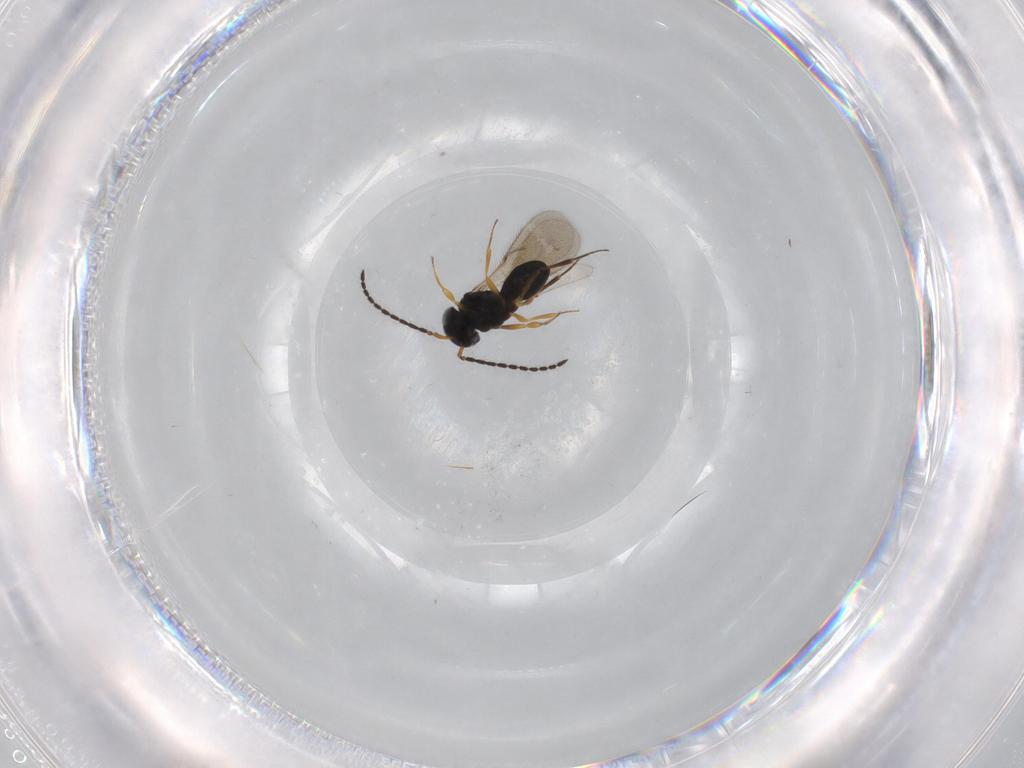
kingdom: Animalia
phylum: Arthropoda
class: Insecta
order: Hymenoptera
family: Scelionidae
